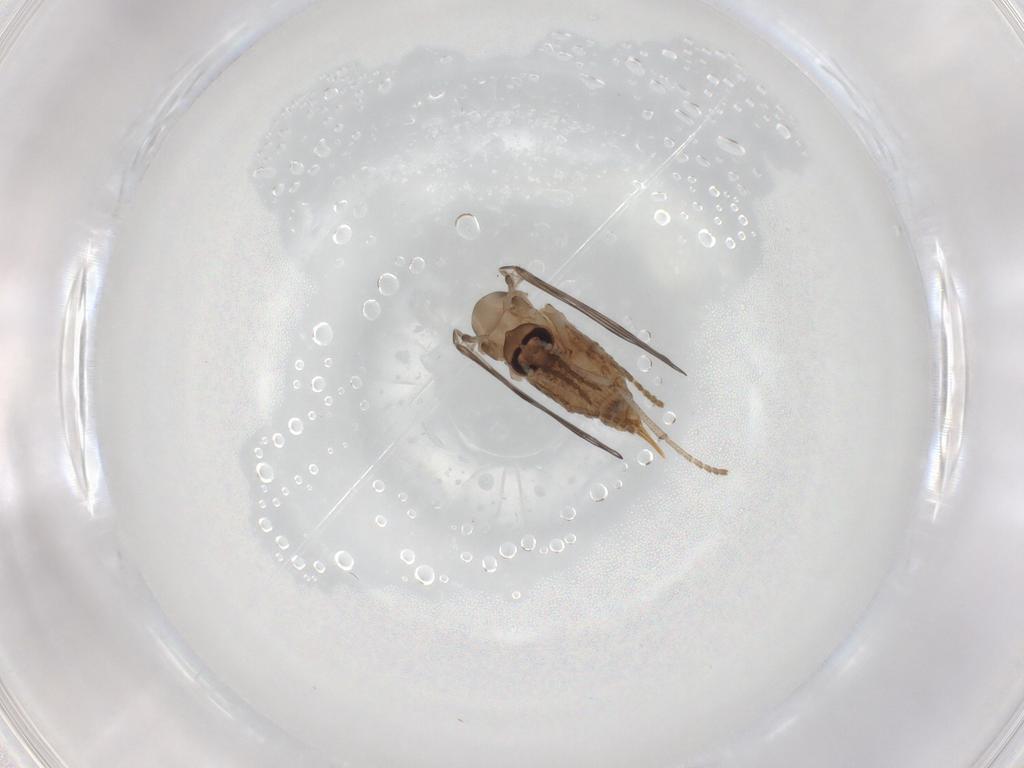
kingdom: Animalia
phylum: Arthropoda
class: Insecta
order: Diptera
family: Psychodidae
